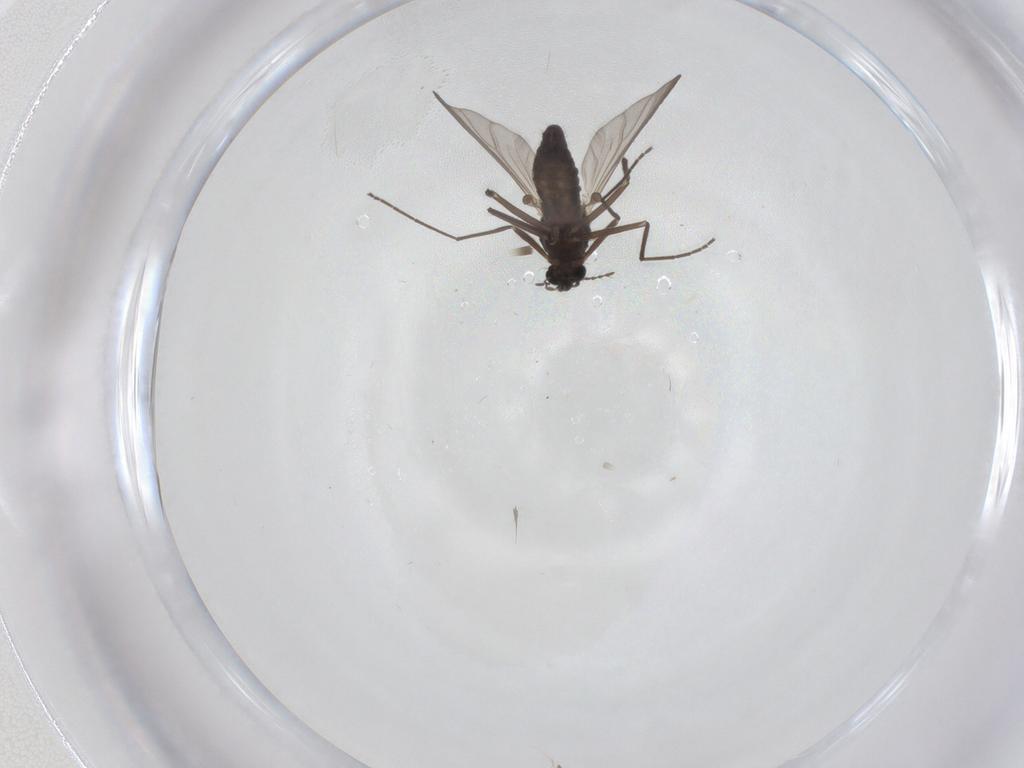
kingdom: Animalia
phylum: Arthropoda
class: Insecta
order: Diptera
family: Chironomidae
